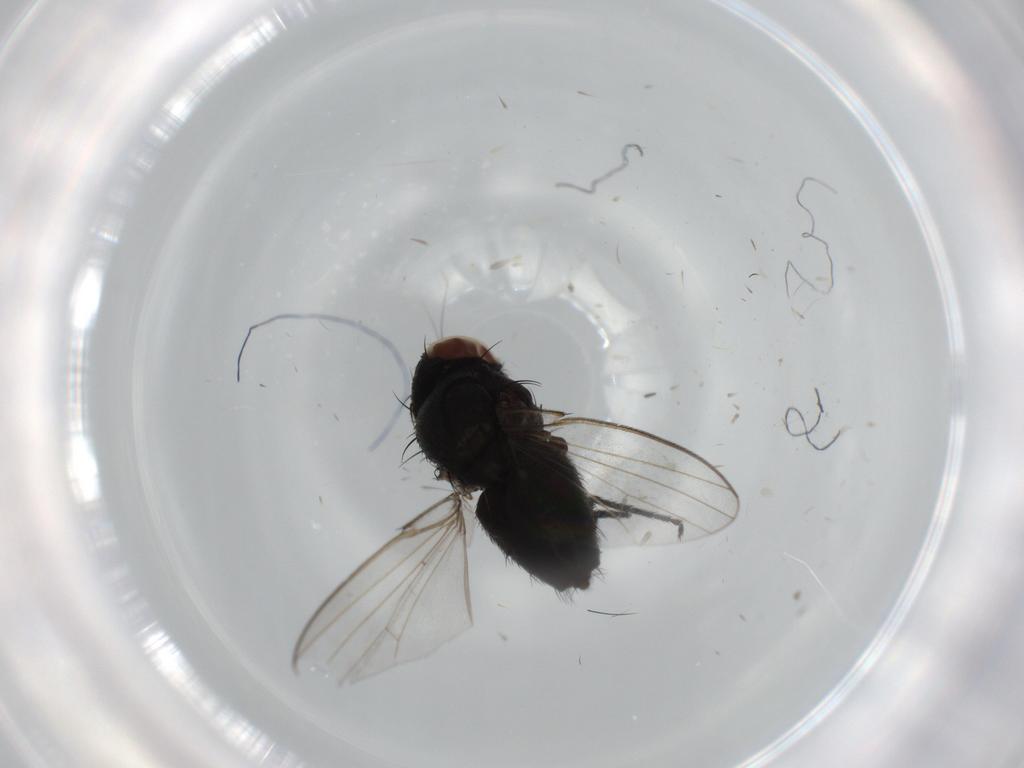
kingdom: Animalia
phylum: Arthropoda
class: Insecta
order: Diptera
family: Milichiidae
